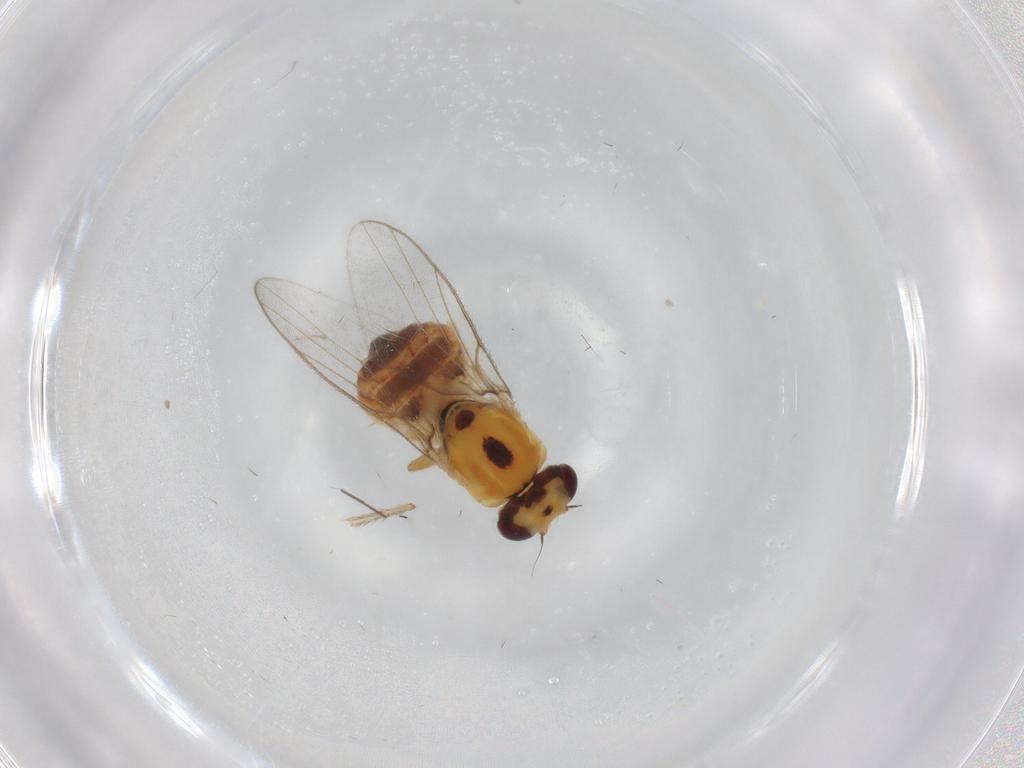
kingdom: Animalia
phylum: Arthropoda
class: Insecta
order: Diptera
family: Chloropidae
